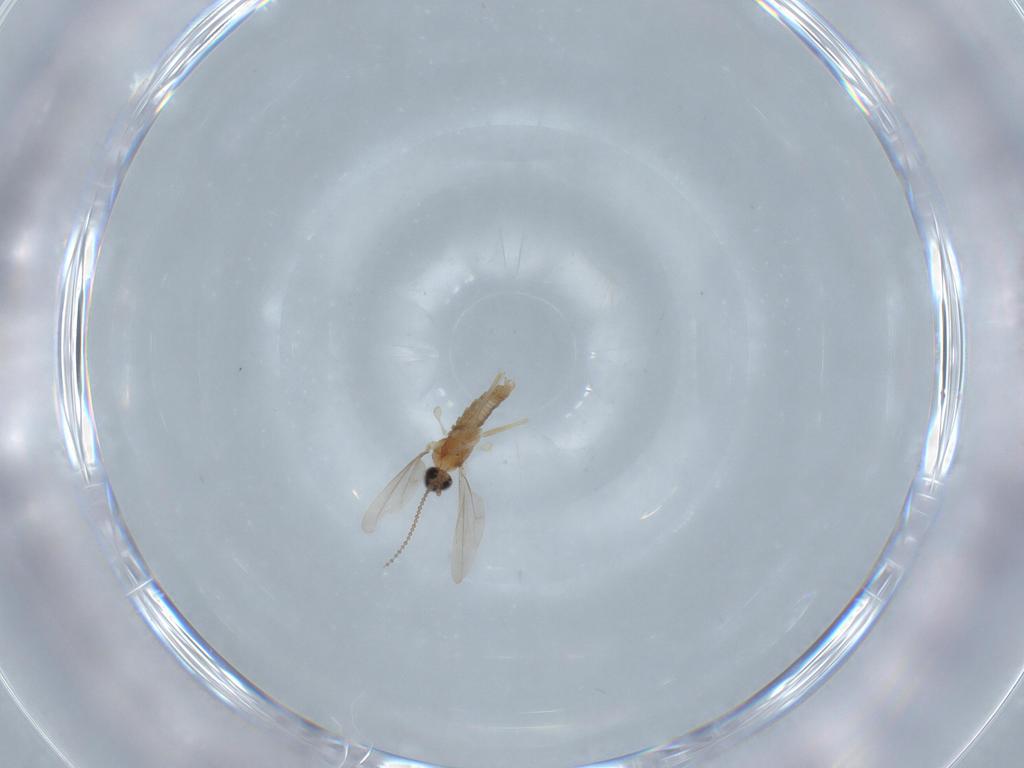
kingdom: Animalia
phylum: Arthropoda
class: Insecta
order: Diptera
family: Cecidomyiidae
